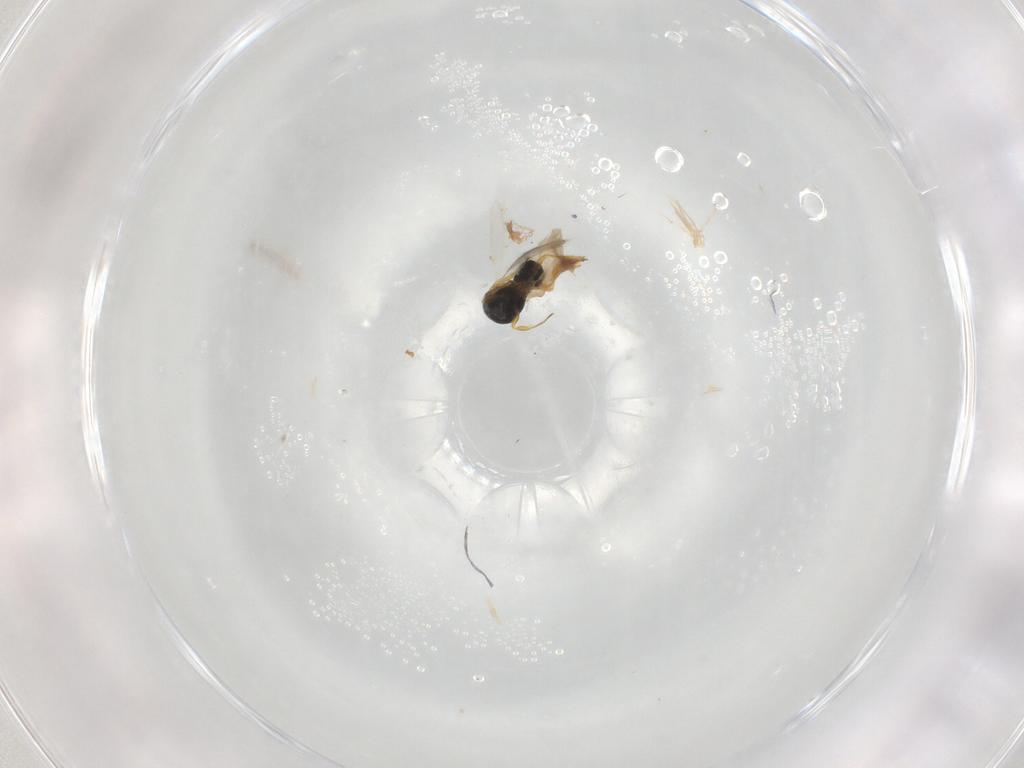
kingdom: Animalia
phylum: Arthropoda
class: Insecta
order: Hymenoptera
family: Scelionidae
